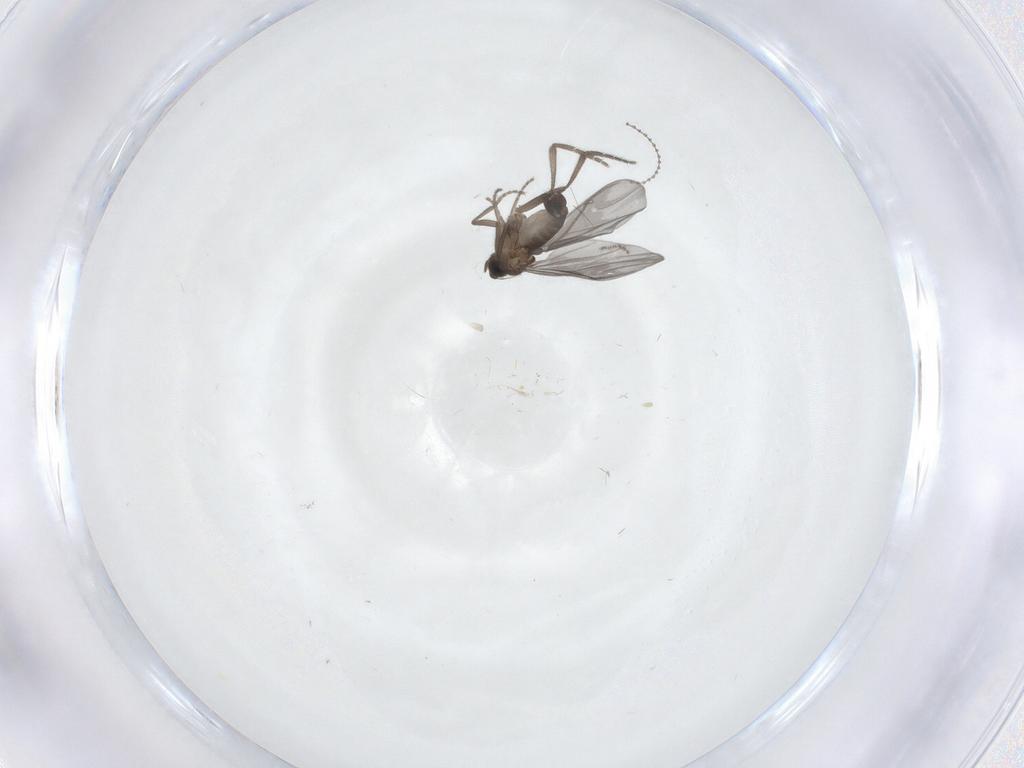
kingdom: Animalia
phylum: Arthropoda
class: Insecta
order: Diptera
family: Phoridae
